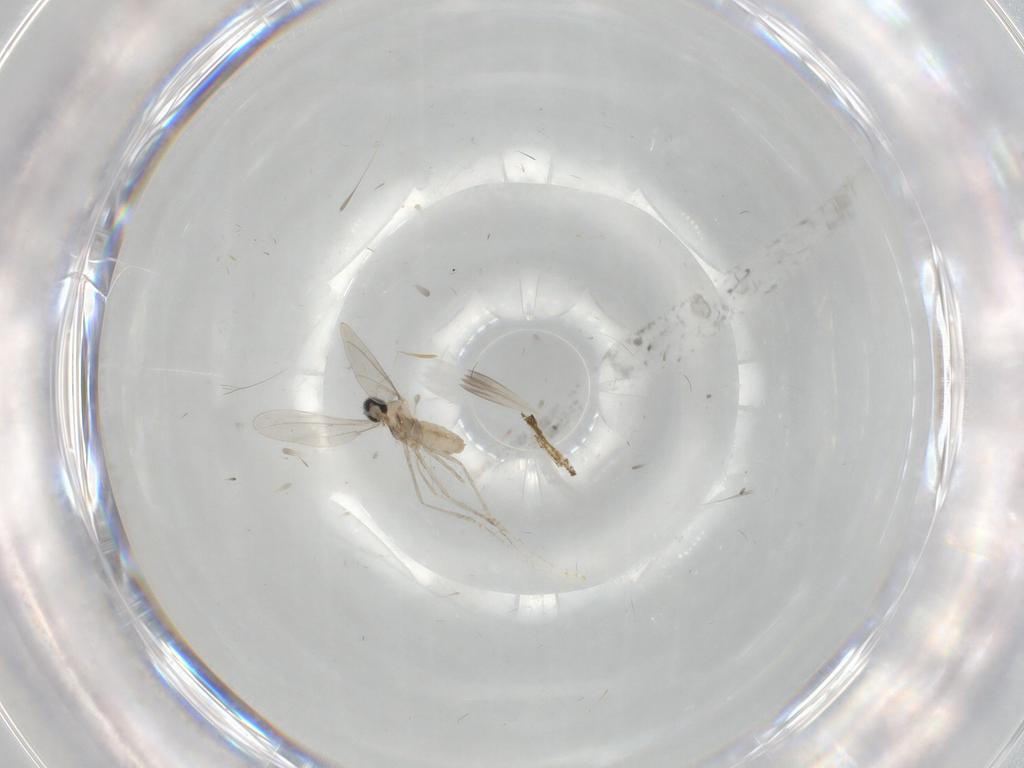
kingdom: Animalia
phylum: Arthropoda
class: Insecta
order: Diptera
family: Cecidomyiidae
